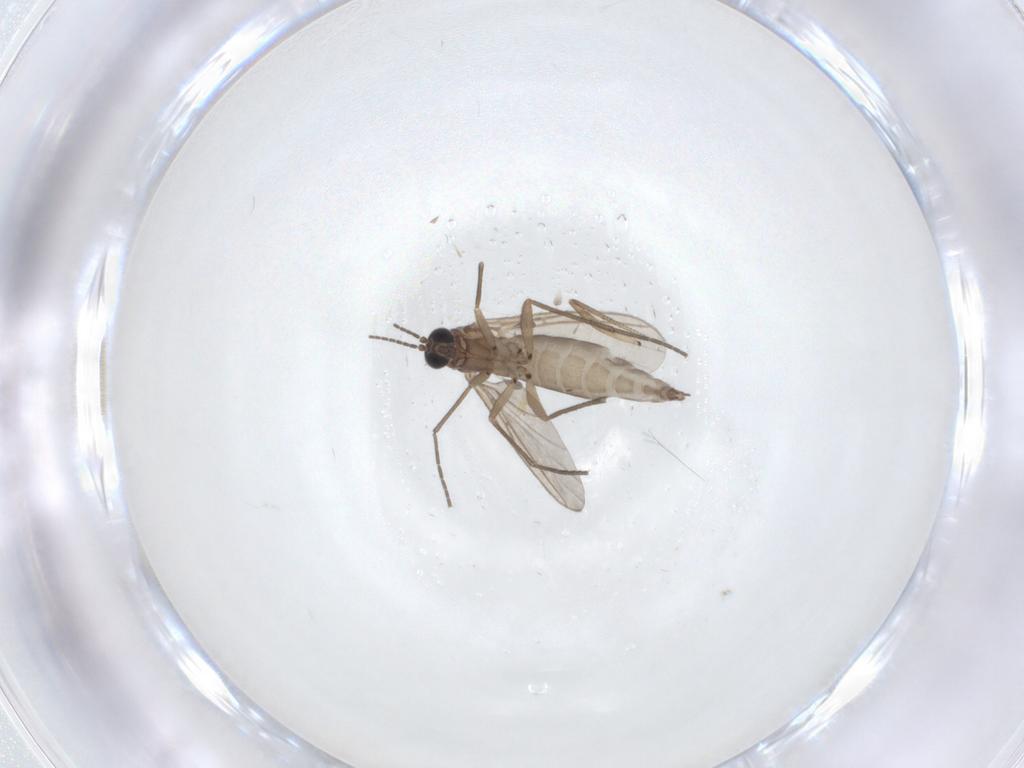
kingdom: Animalia
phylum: Arthropoda
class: Insecta
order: Diptera
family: Sciaridae
